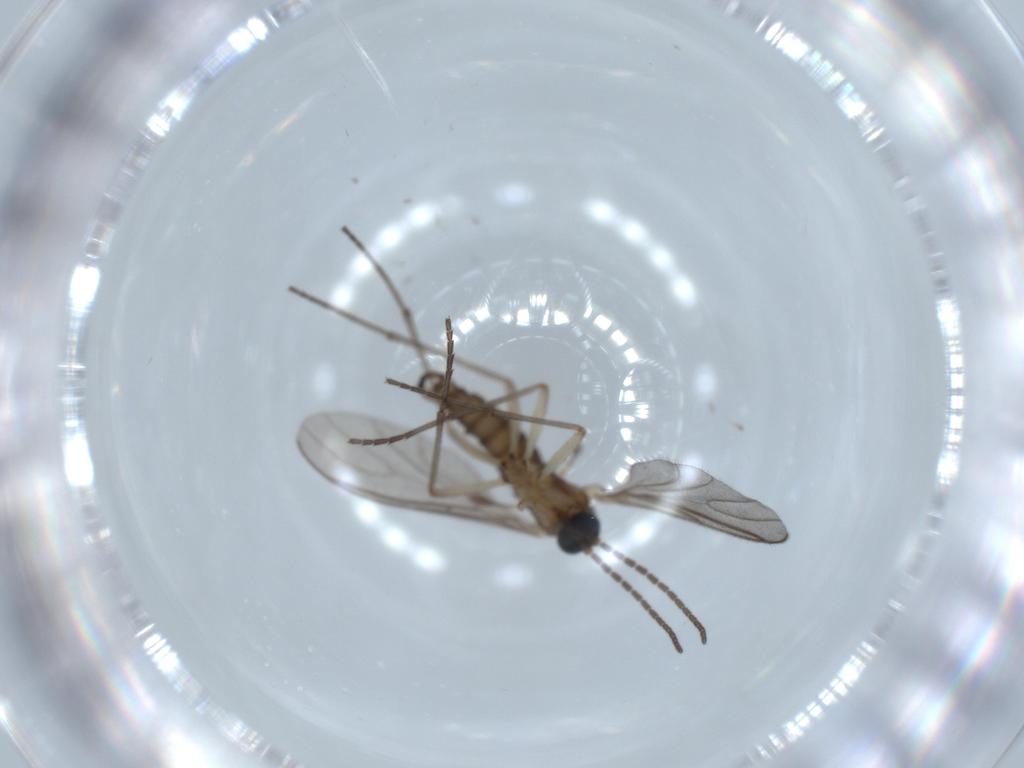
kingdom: Animalia
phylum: Arthropoda
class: Insecta
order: Diptera
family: Sciaridae
